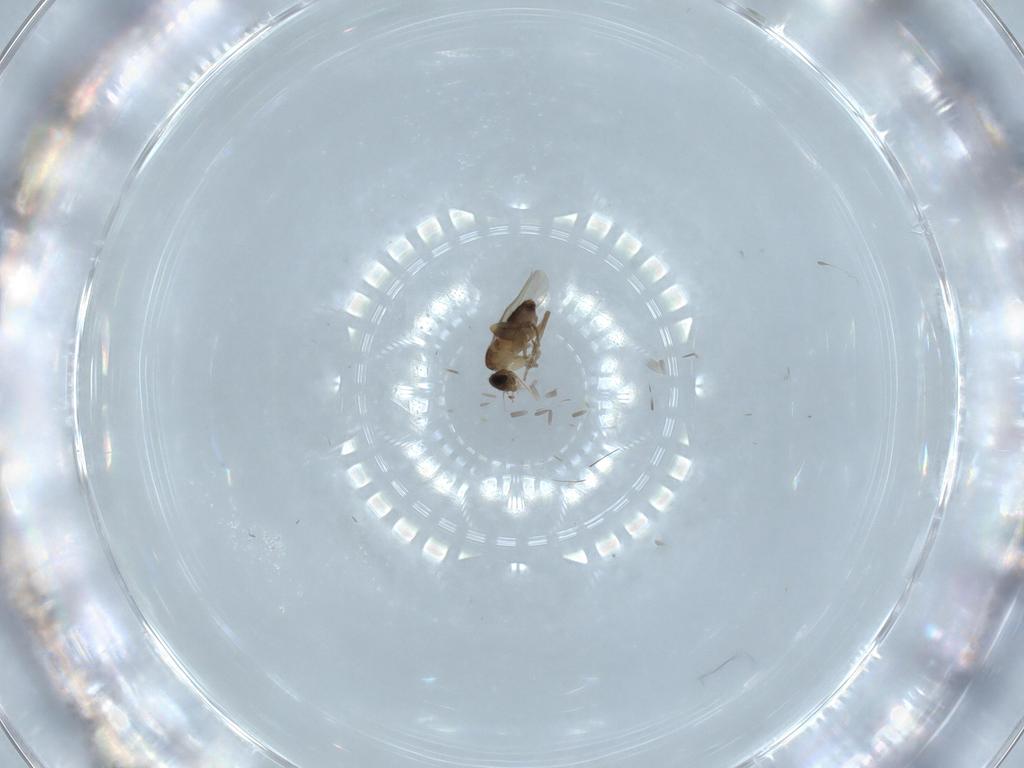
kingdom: Animalia
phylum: Arthropoda
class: Insecta
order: Diptera
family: Phoridae
